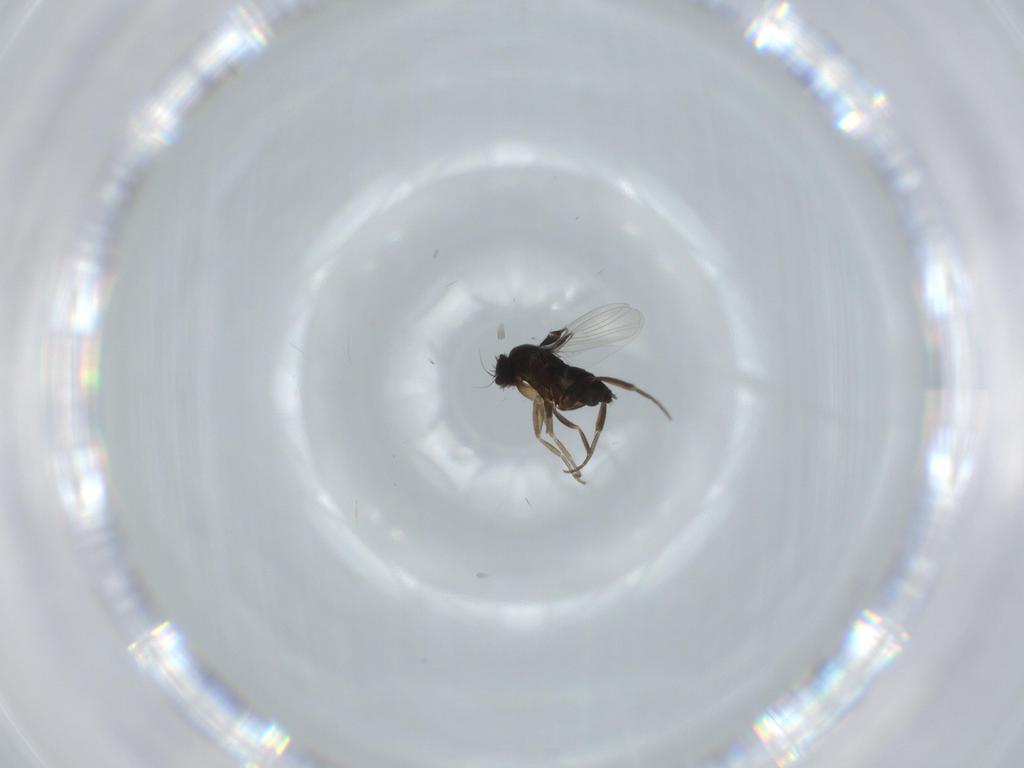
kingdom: Animalia
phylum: Arthropoda
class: Insecta
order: Diptera
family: Phoridae
